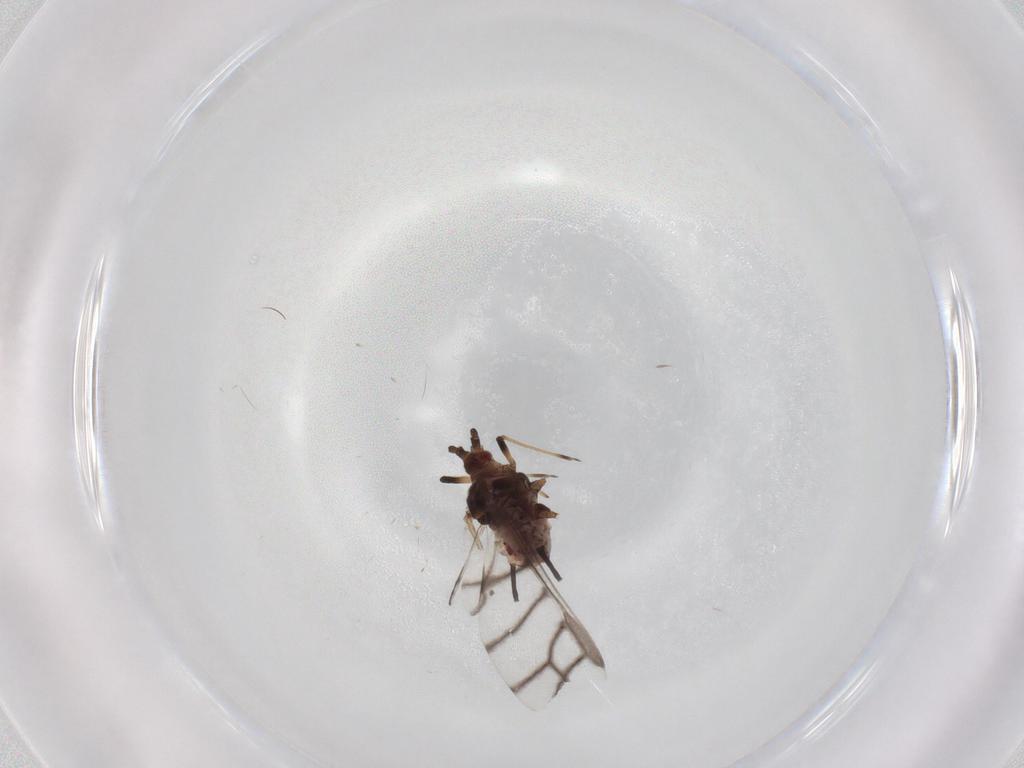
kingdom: Animalia
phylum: Arthropoda
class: Insecta
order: Hemiptera
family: Aphididae
